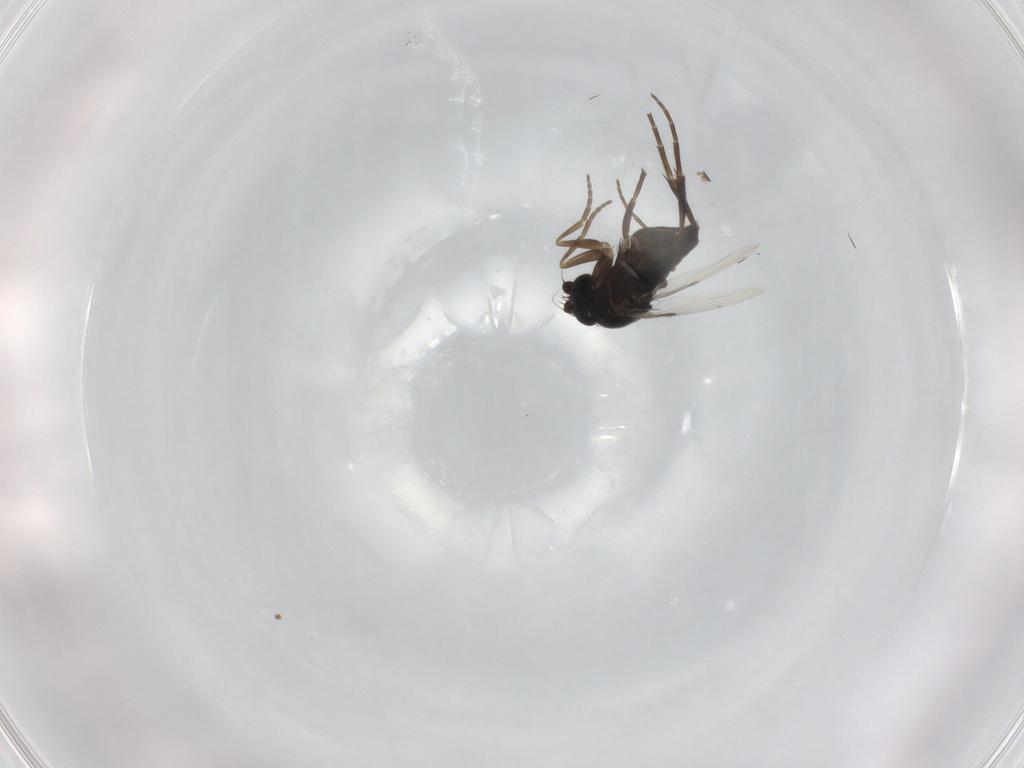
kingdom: Animalia
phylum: Arthropoda
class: Insecta
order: Diptera
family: Phoridae
